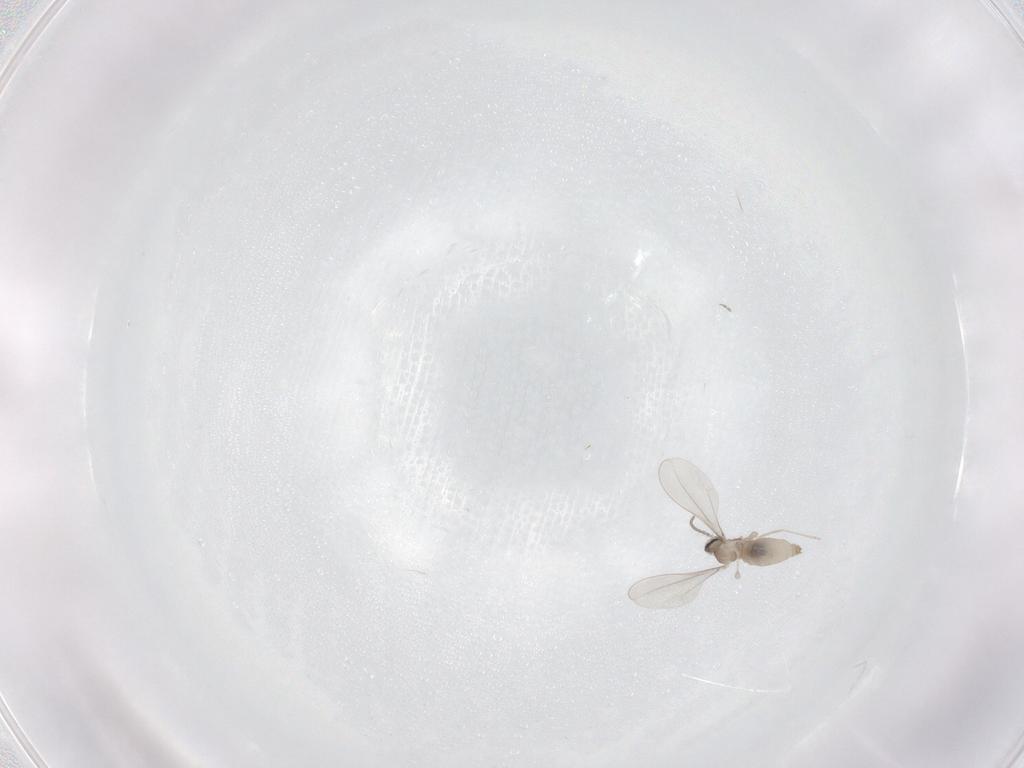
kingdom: Animalia
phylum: Arthropoda
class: Insecta
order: Diptera
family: Cecidomyiidae
